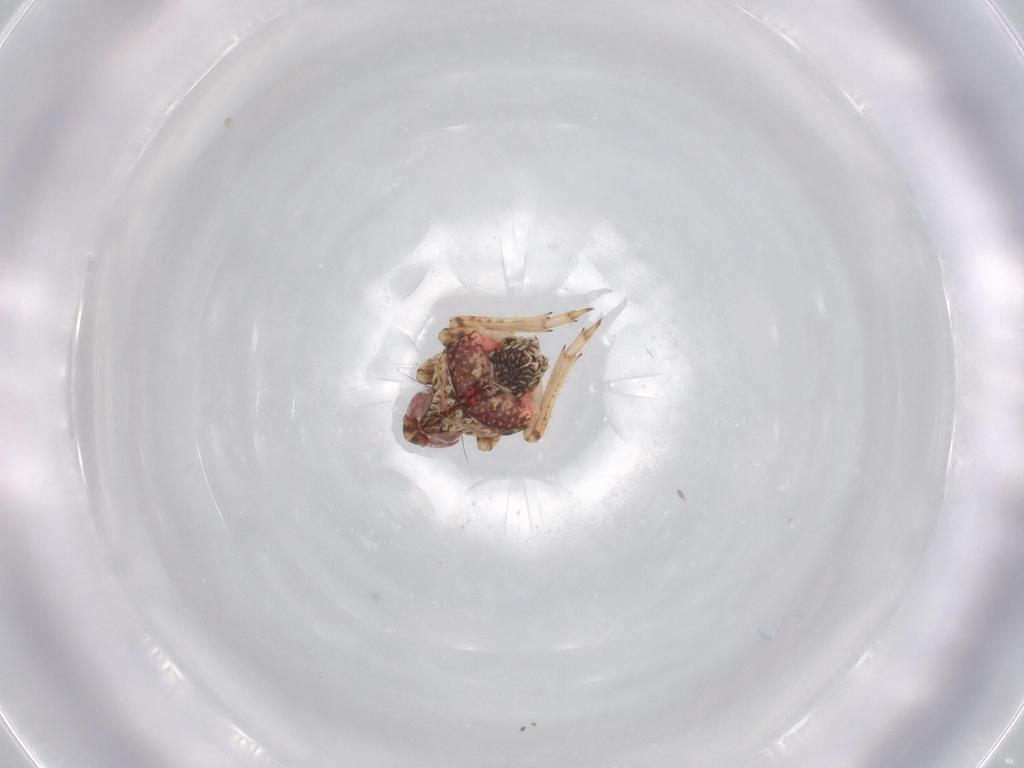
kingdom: Animalia
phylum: Arthropoda
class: Insecta
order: Hemiptera
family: Issidae
